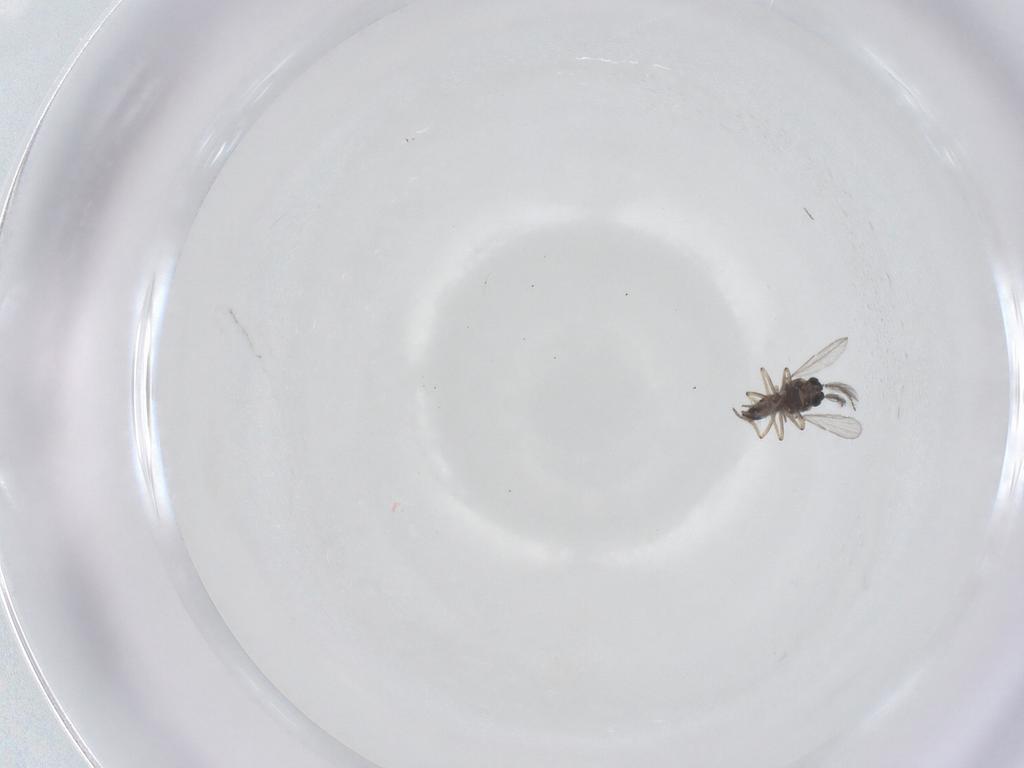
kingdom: Animalia
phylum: Arthropoda
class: Insecta
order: Diptera
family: Ceratopogonidae
